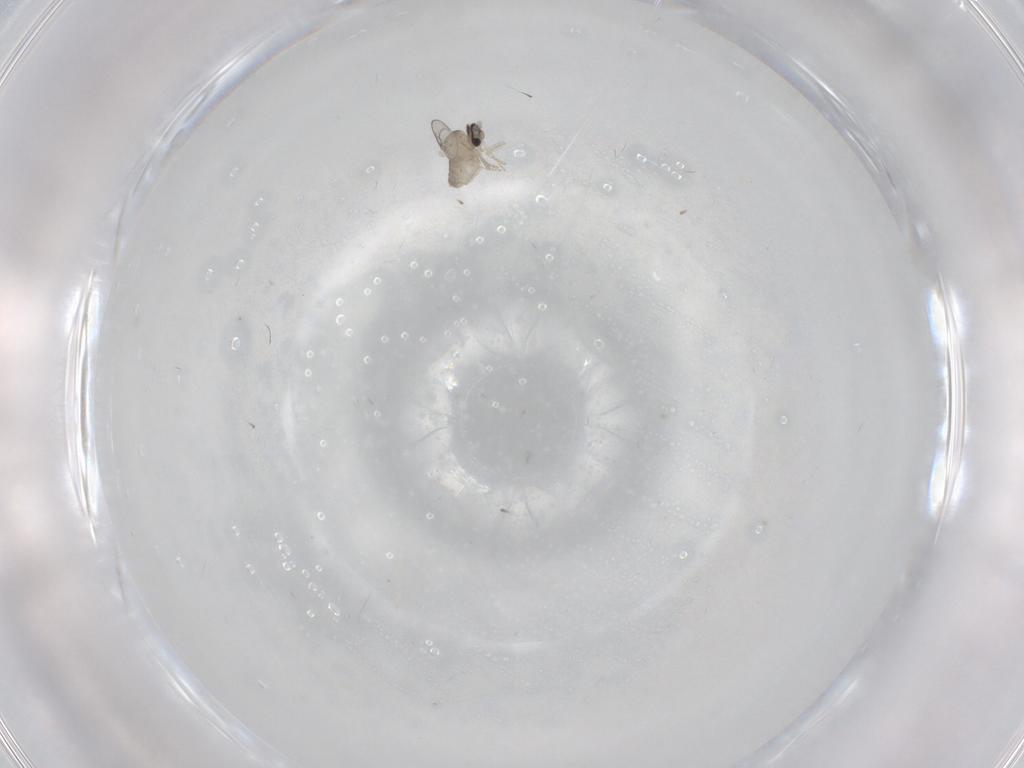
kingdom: Animalia
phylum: Arthropoda
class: Insecta
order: Diptera
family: Cecidomyiidae
